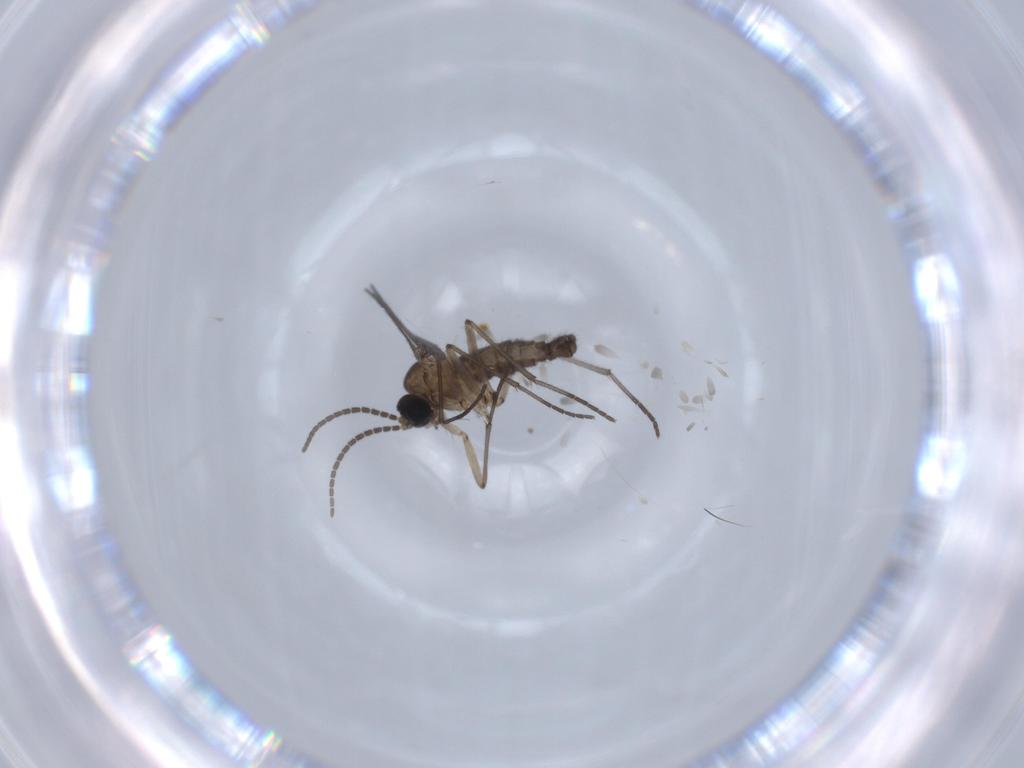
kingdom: Animalia
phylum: Arthropoda
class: Insecta
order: Diptera
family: Sciaridae
